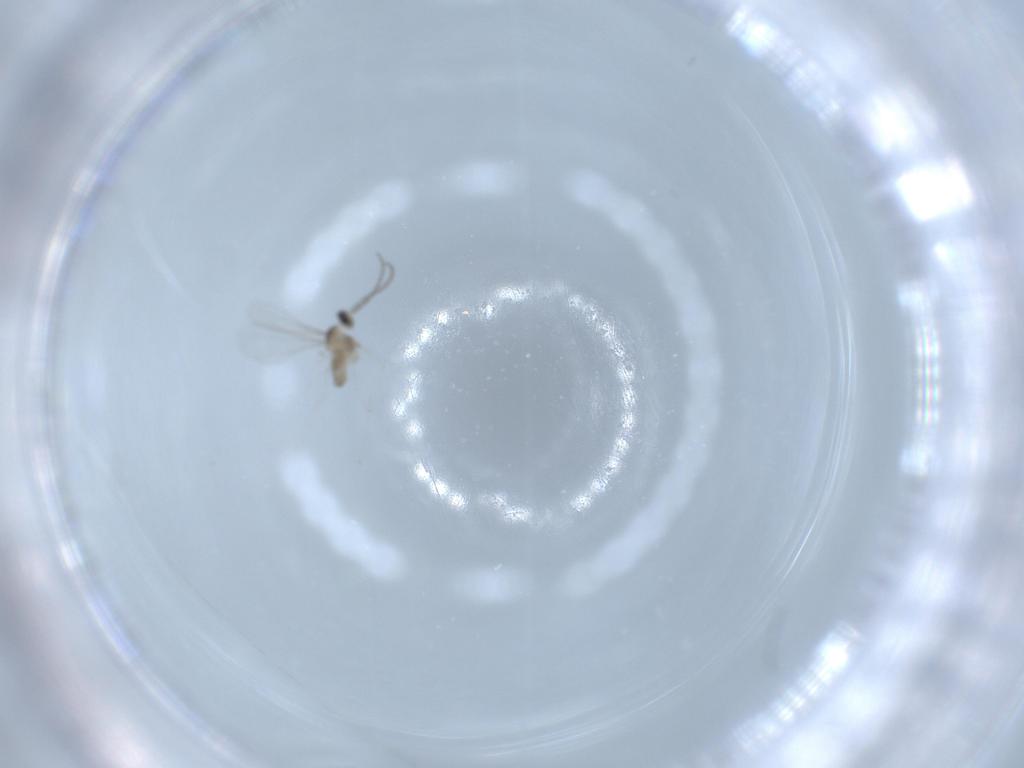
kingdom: Animalia
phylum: Arthropoda
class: Insecta
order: Diptera
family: Cecidomyiidae
